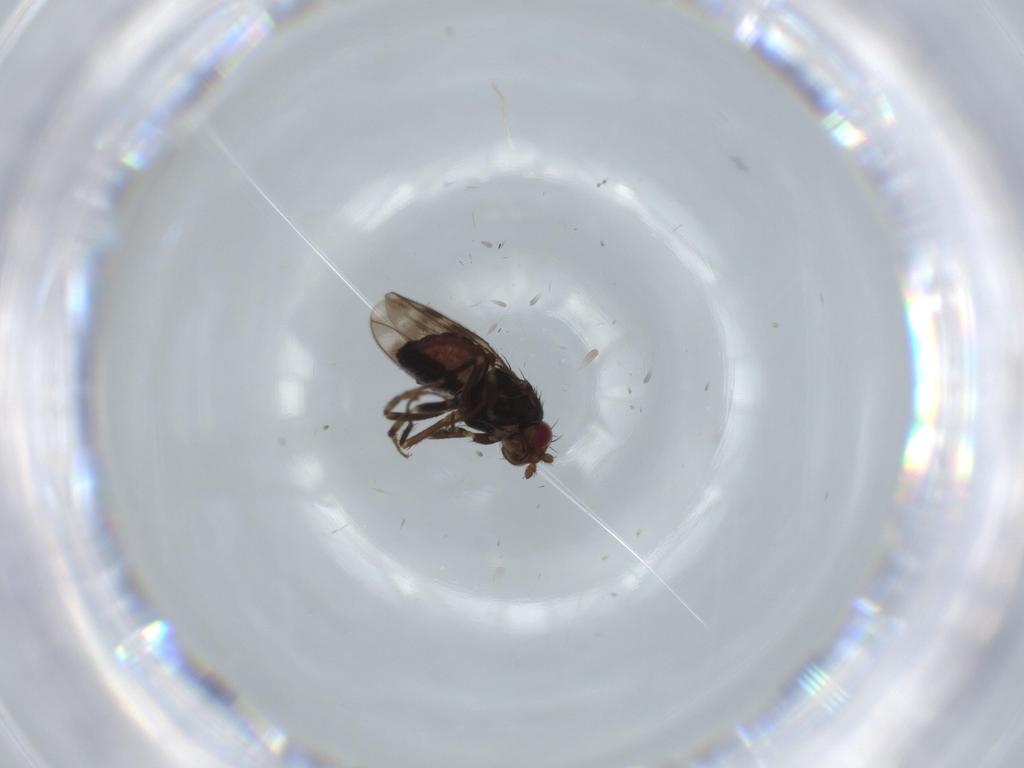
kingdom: Animalia
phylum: Arthropoda
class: Insecta
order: Diptera
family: Sphaeroceridae
